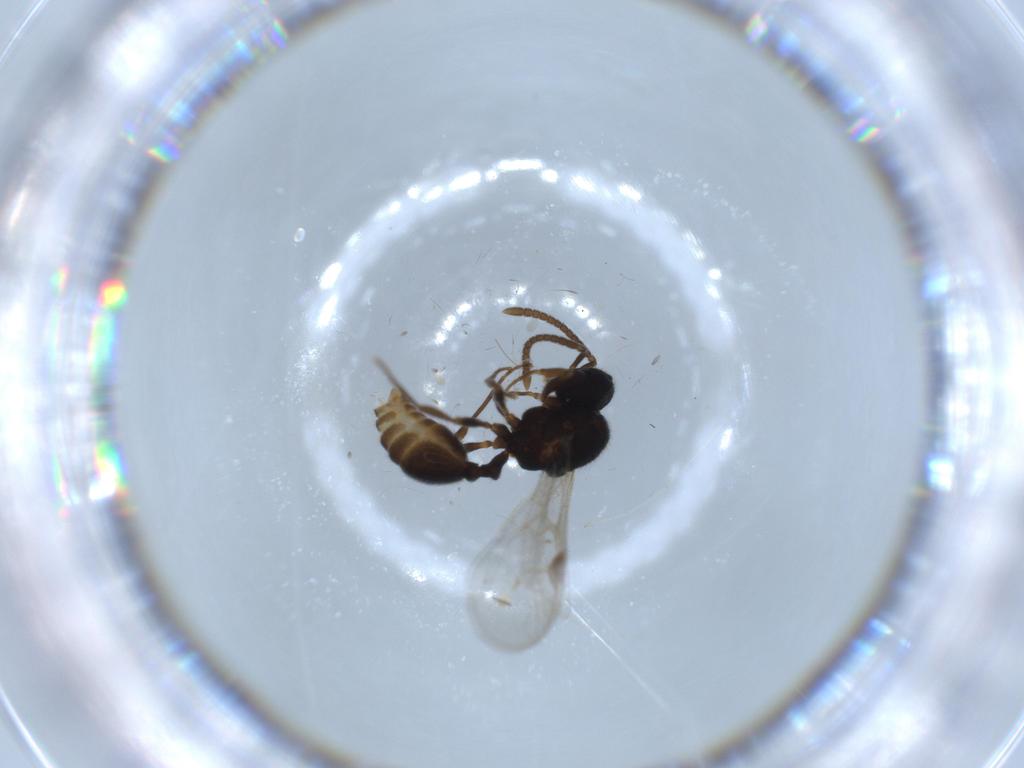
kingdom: Animalia
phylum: Arthropoda
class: Insecta
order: Hymenoptera
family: Formicidae
